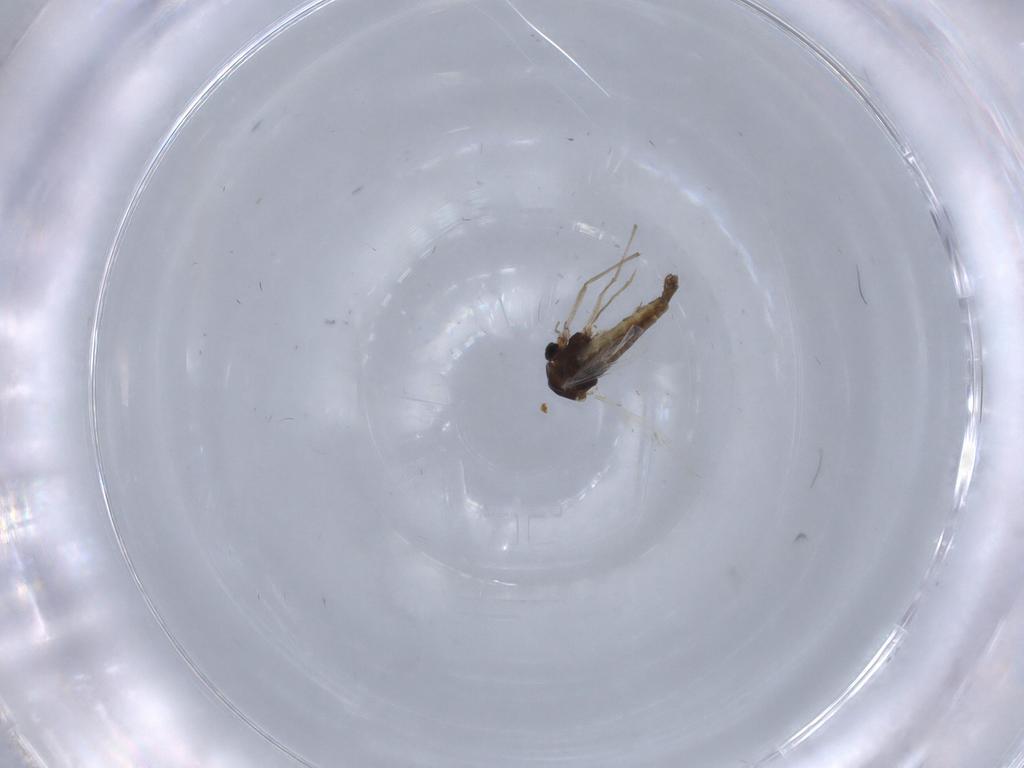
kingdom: Animalia
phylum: Arthropoda
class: Insecta
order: Diptera
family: Chironomidae
